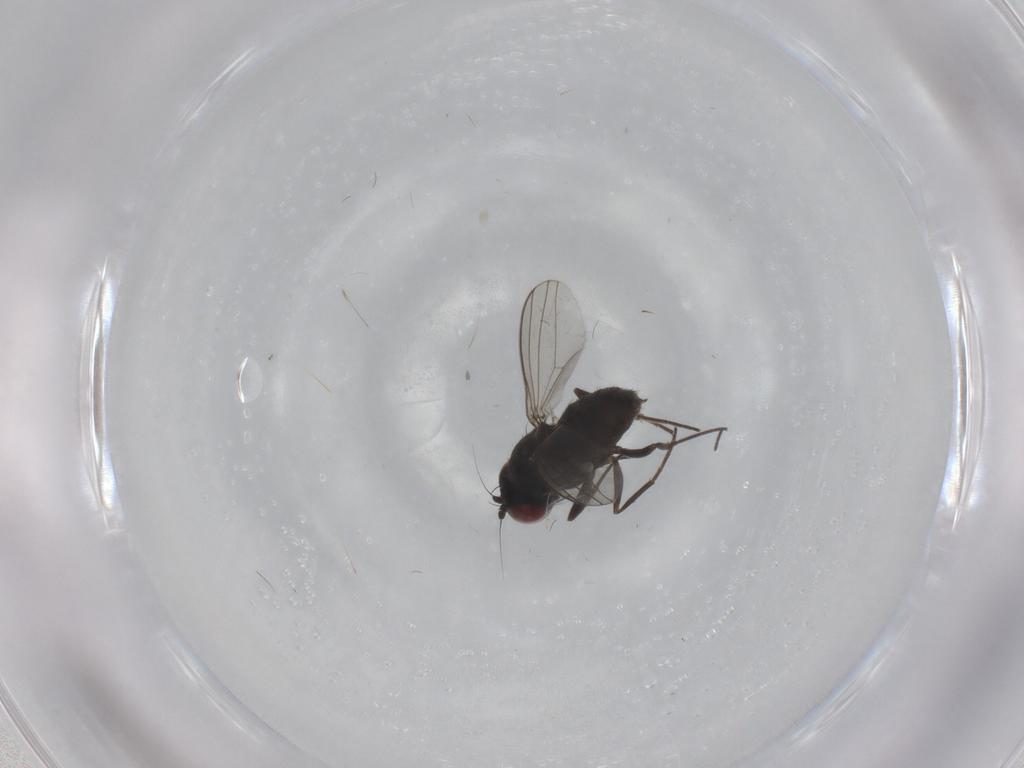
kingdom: Animalia
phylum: Arthropoda
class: Insecta
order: Diptera
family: Dolichopodidae
